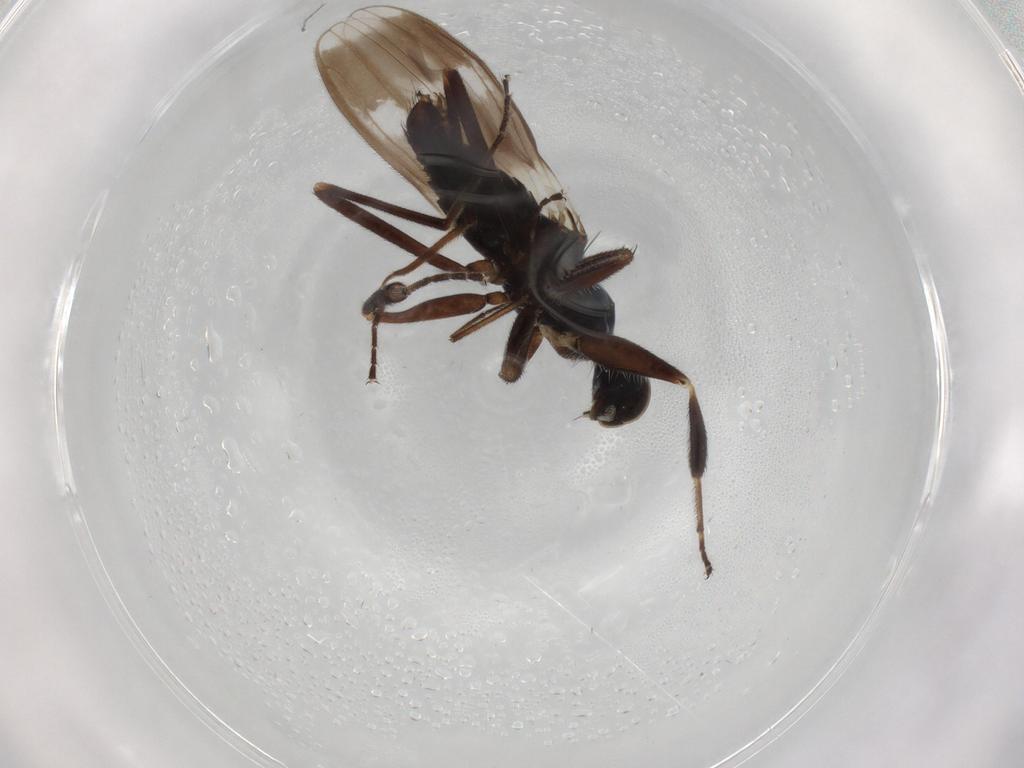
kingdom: Animalia
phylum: Arthropoda
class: Insecta
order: Diptera
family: Hybotidae
